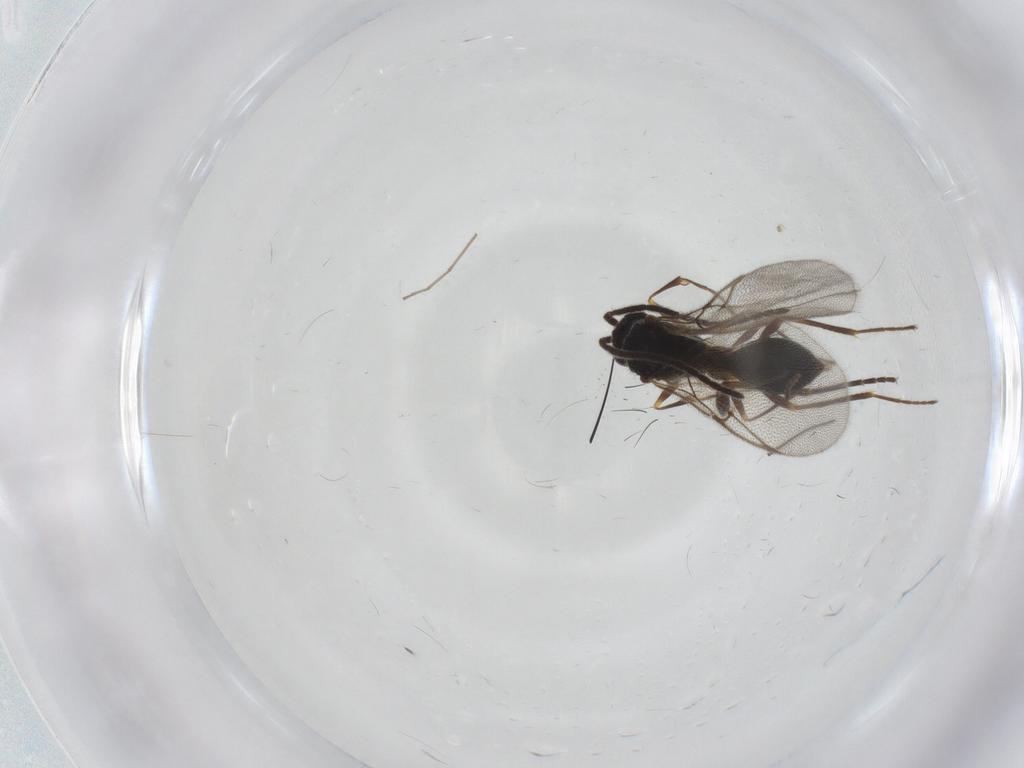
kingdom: Animalia
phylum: Arthropoda
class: Insecta
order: Hymenoptera
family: Diapriidae
